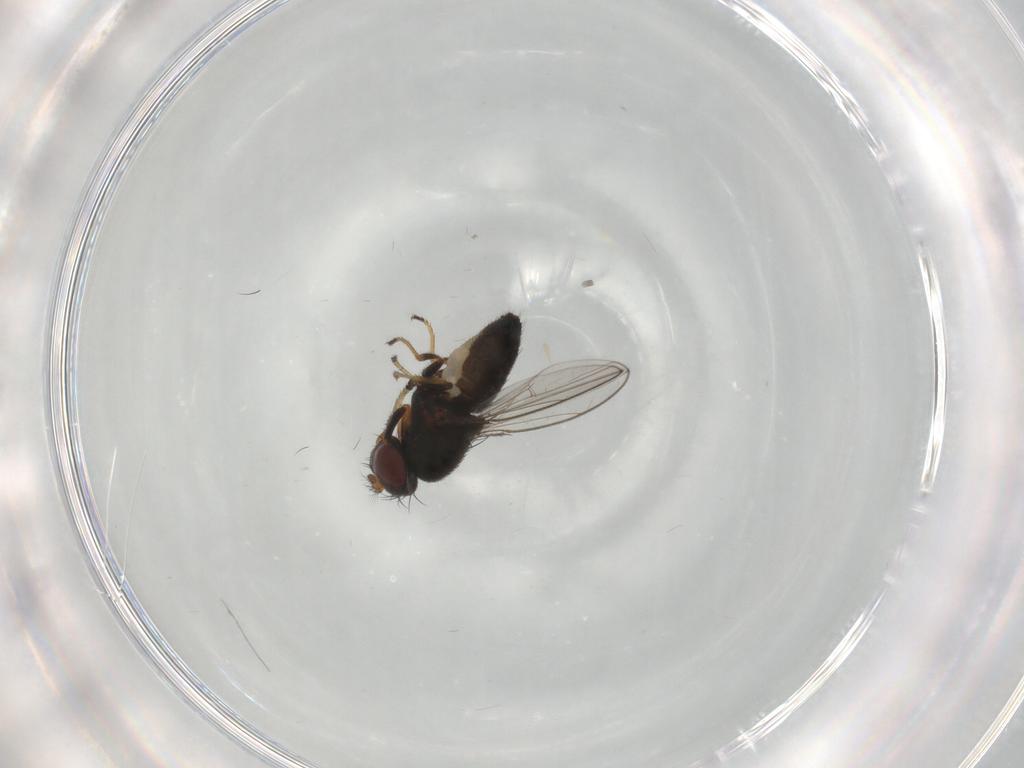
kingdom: Animalia
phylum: Arthropoda
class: Insecta
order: Diptera
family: Ephydridae
